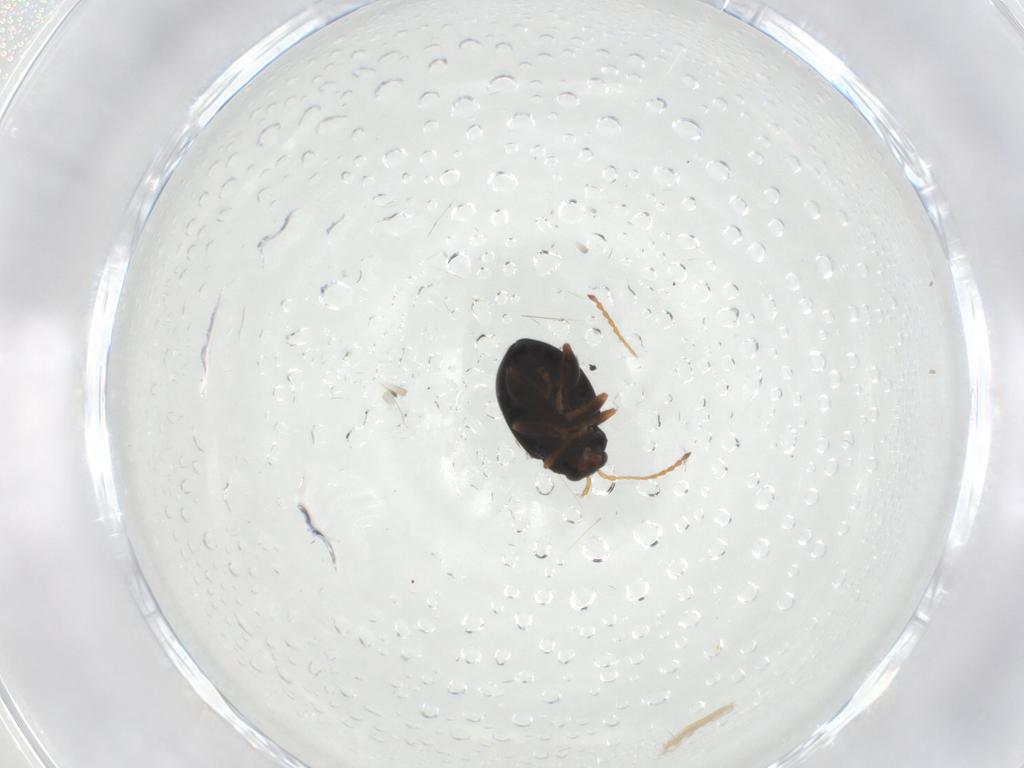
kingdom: Animalia
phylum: Arthropoda
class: Insecta
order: Coleoptera
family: Chrysomelidae
